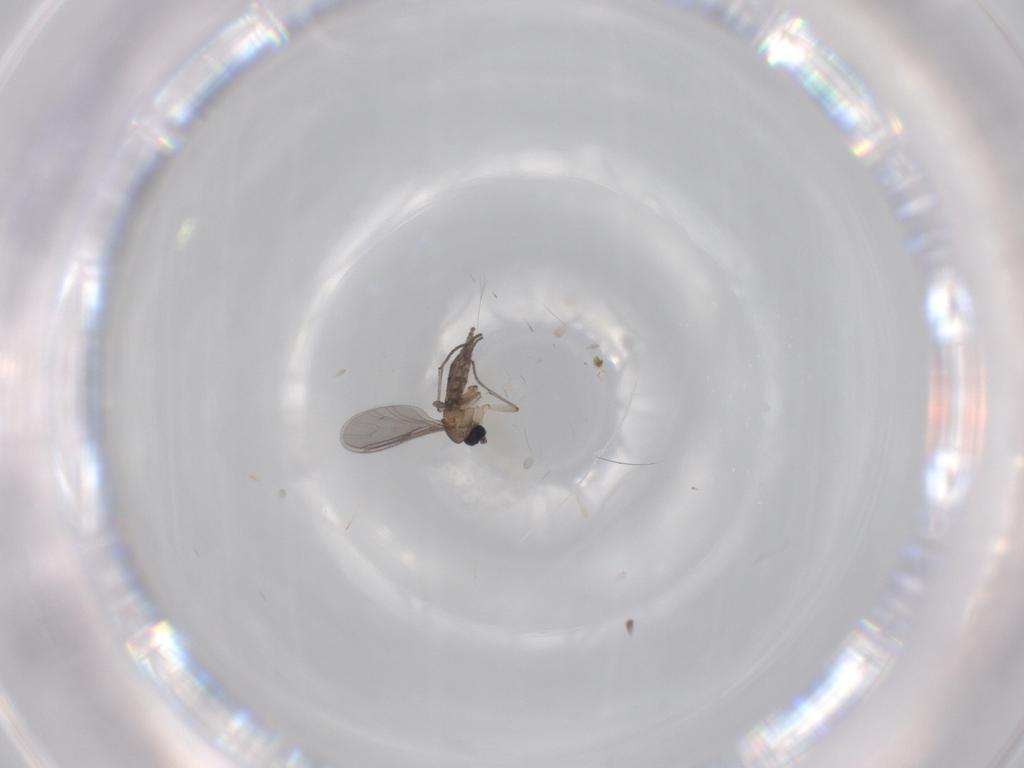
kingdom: Animalia
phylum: Arthropoda
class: Insecta
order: Diptera
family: Sciaridae
